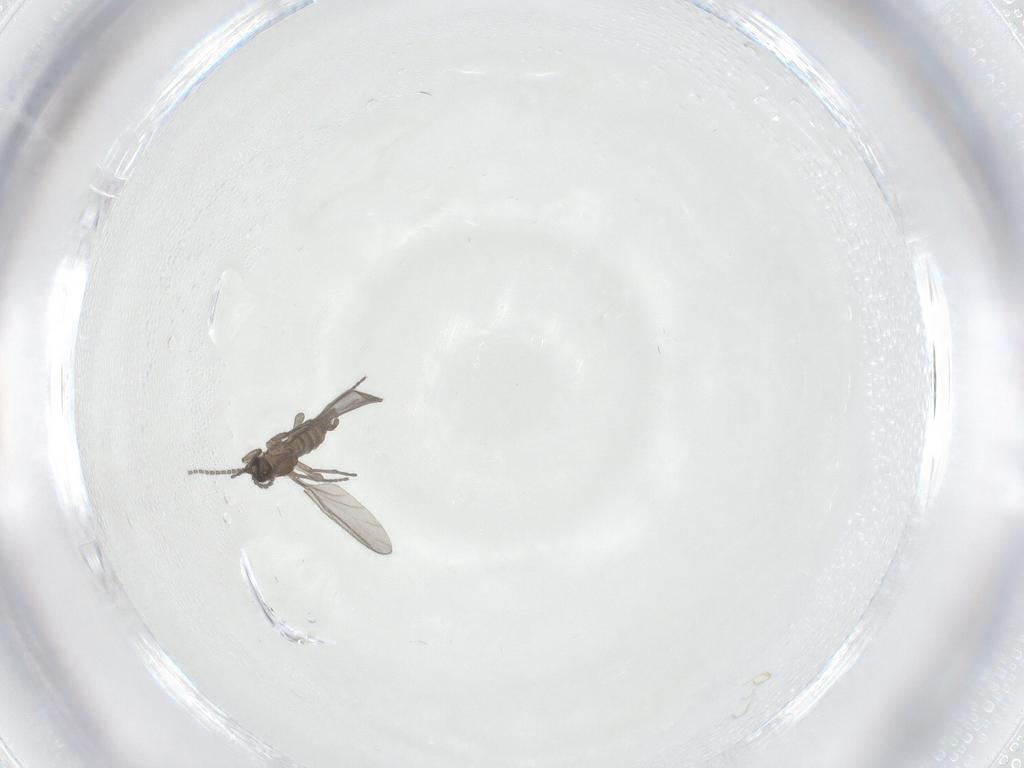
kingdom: Animalia
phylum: Arthropoda
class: Insecta
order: Diptera
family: Sciaridae
